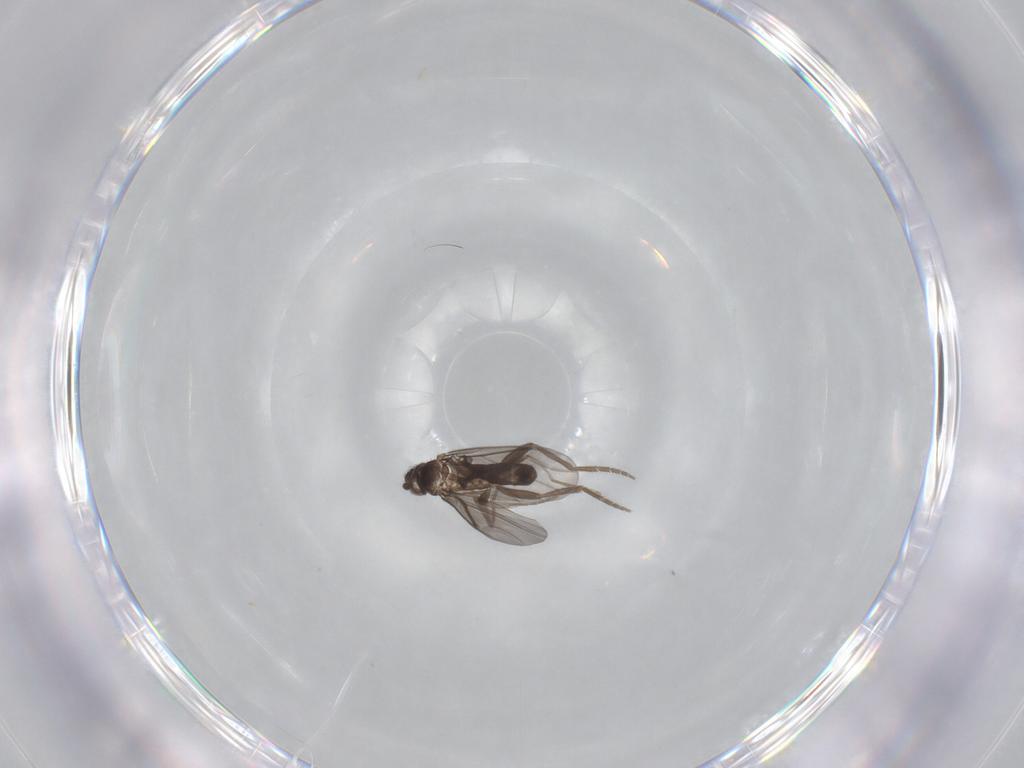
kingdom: Animalia
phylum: Arthropoda
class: Insecta
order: Diptera
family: Phoridae
